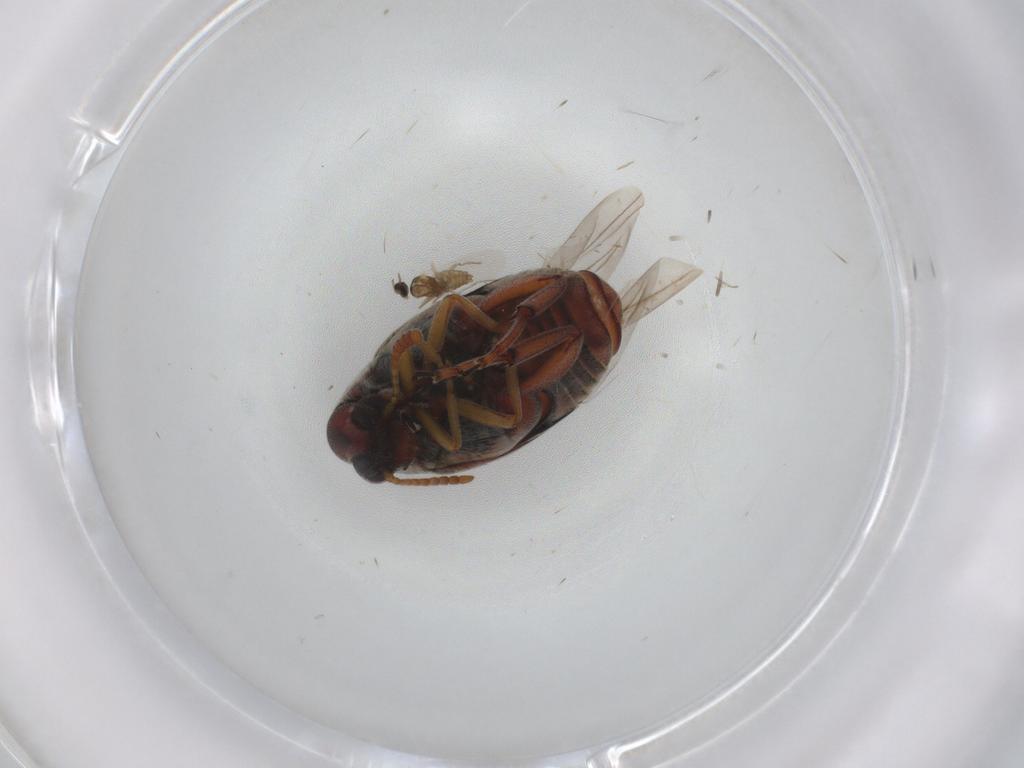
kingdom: Animalia
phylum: Arthropoda
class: Insecta
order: Diptera
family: Cecidomyiidae
